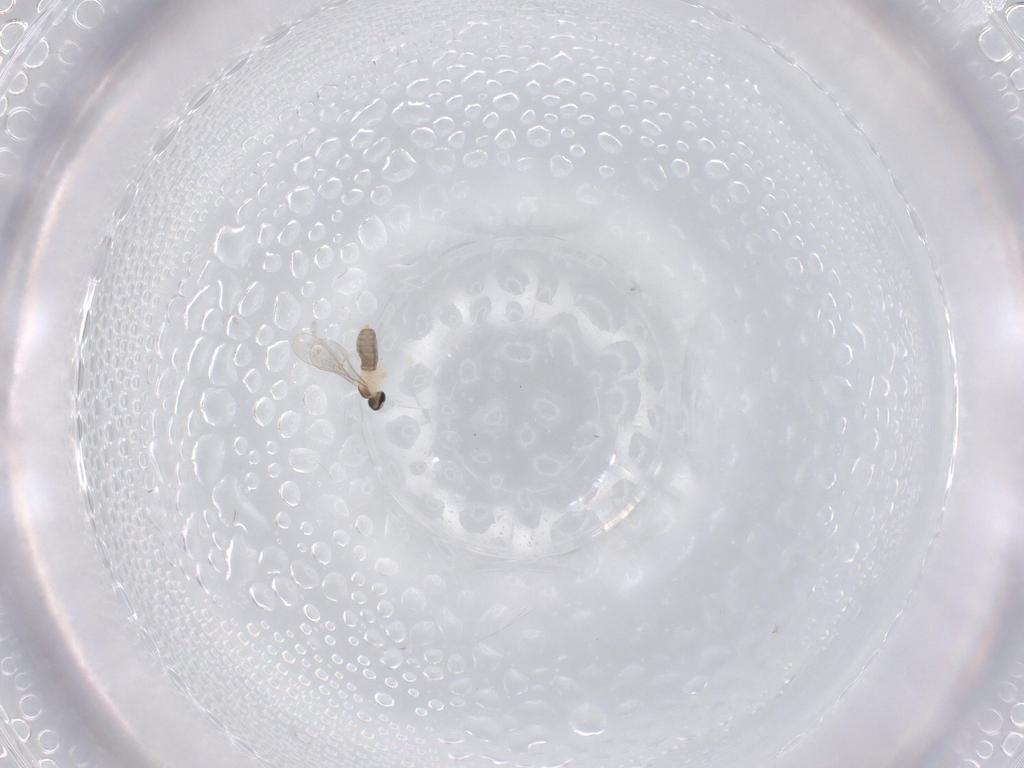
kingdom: Animalia
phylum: Arthropoda
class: Insecta
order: Diptera
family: Cecidomyiidae
